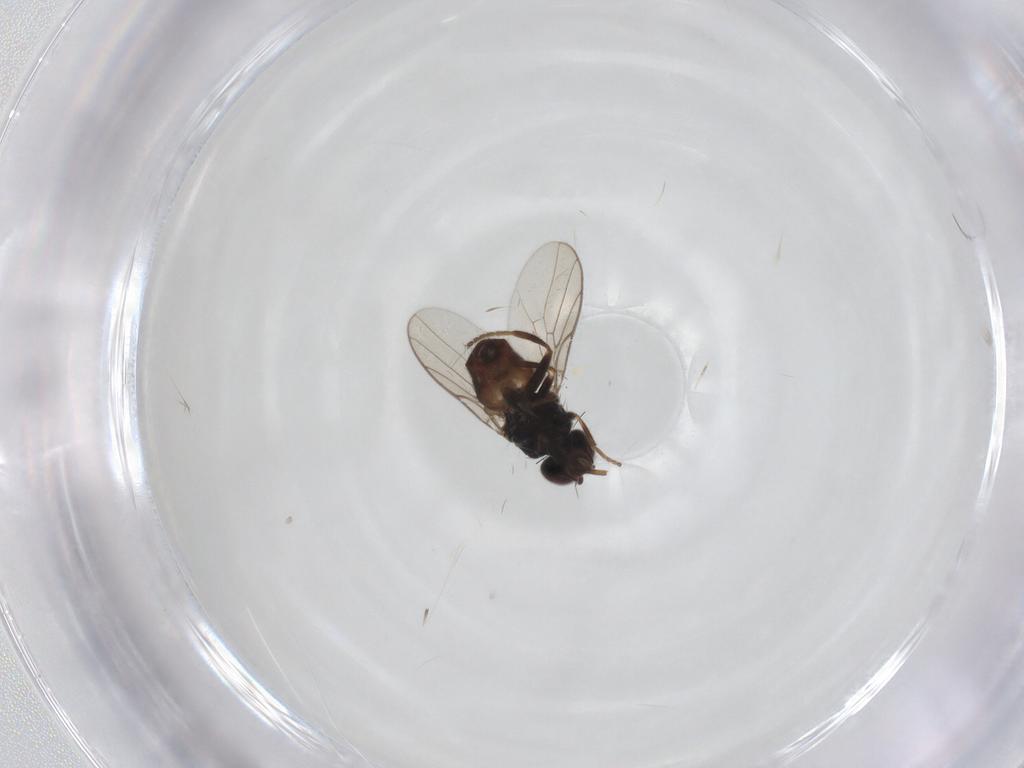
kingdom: Animalia
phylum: Arthropoda
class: Insecta
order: Diptera
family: Chloropidae
